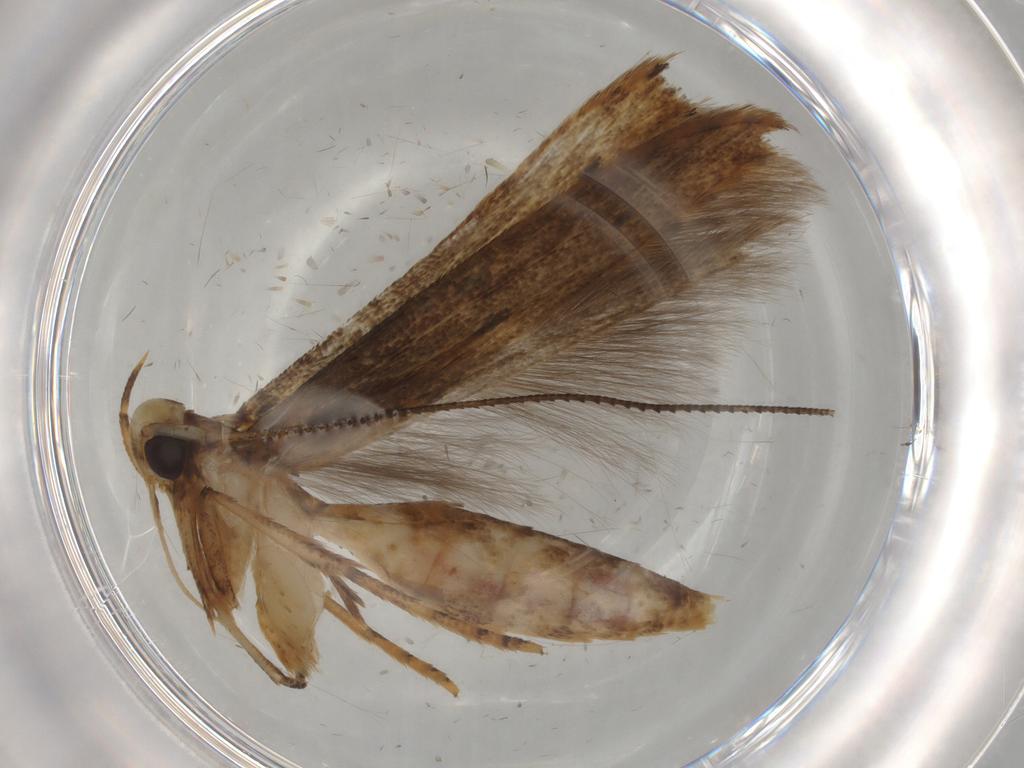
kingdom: Animalia
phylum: Arthropoda
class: Insecta
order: Lepidoptera
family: Gelechiidae
